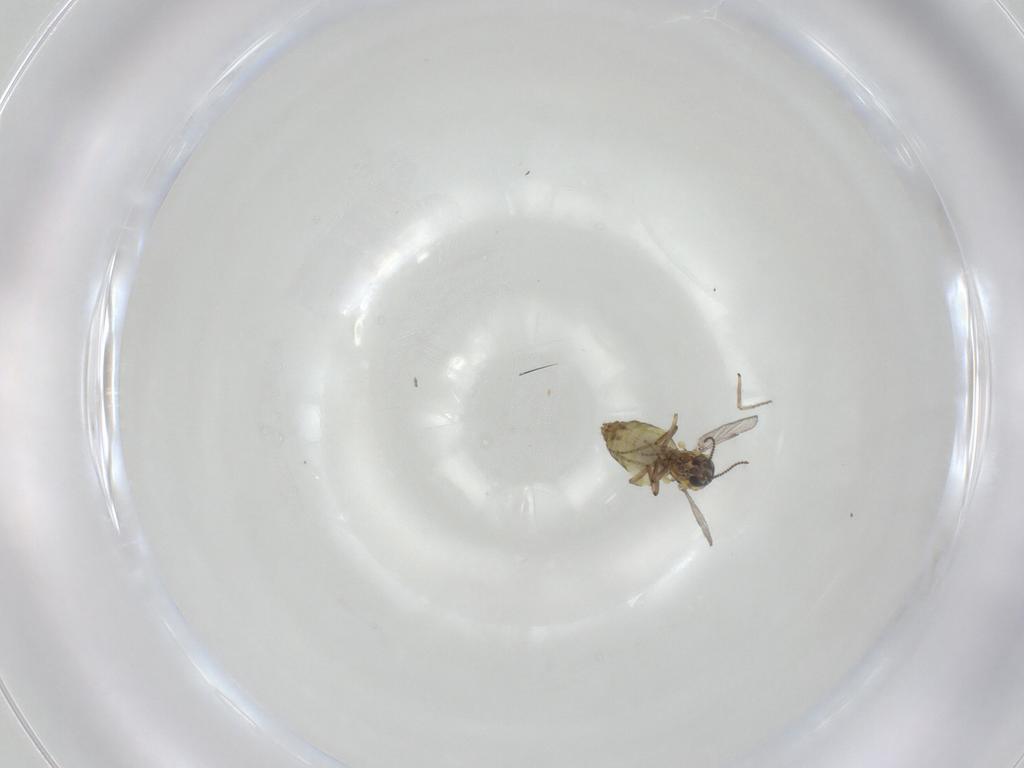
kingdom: Animalia
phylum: Arthropoda
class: Insecta
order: Diptera
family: Ceratopogonidae
